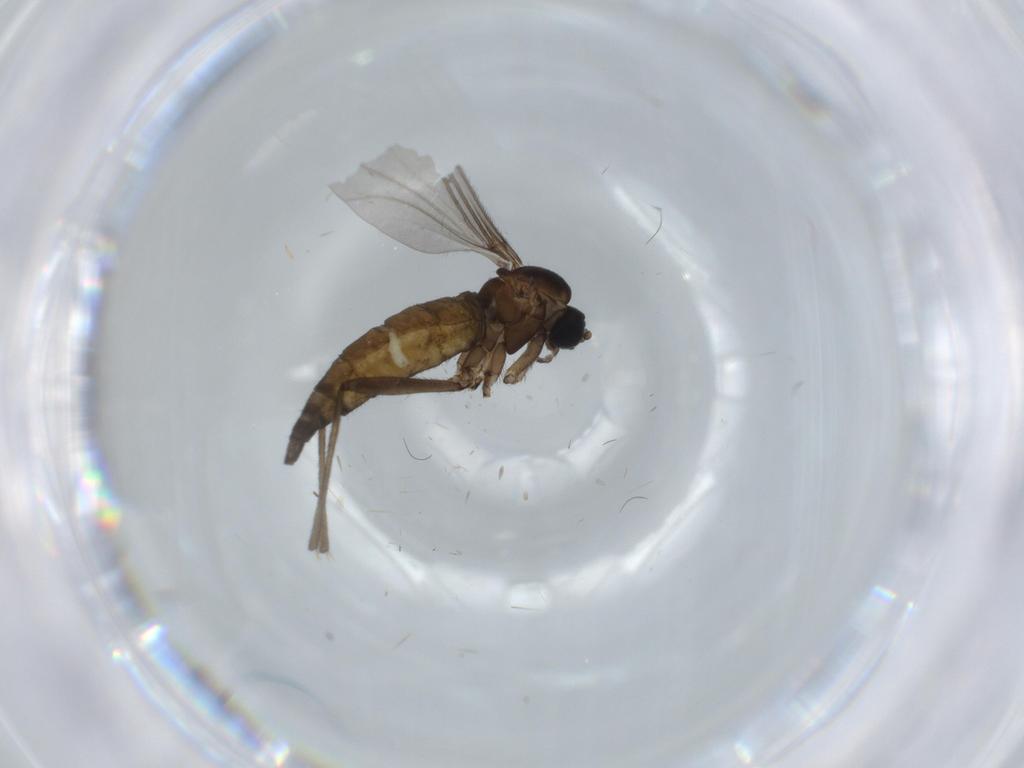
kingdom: Animalia
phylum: Arthropoda
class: Insecta
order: Diptera
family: Sciaridae
